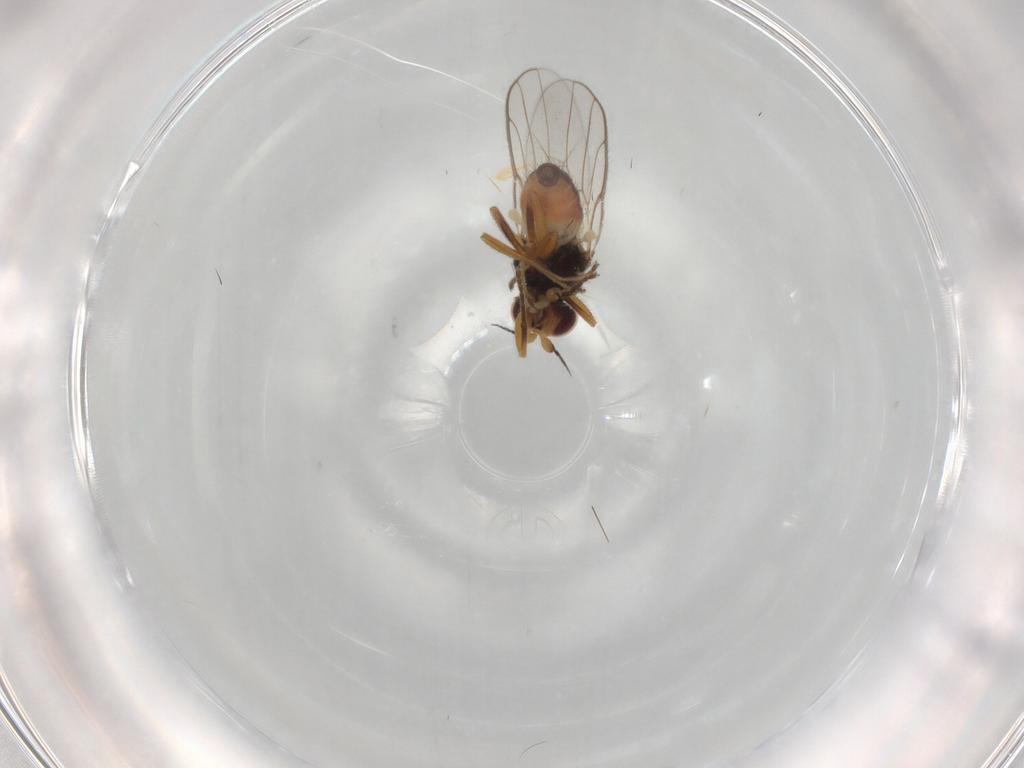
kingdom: Animalia
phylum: Arthropoda
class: Insecta
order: Diptera
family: Chloropidae
